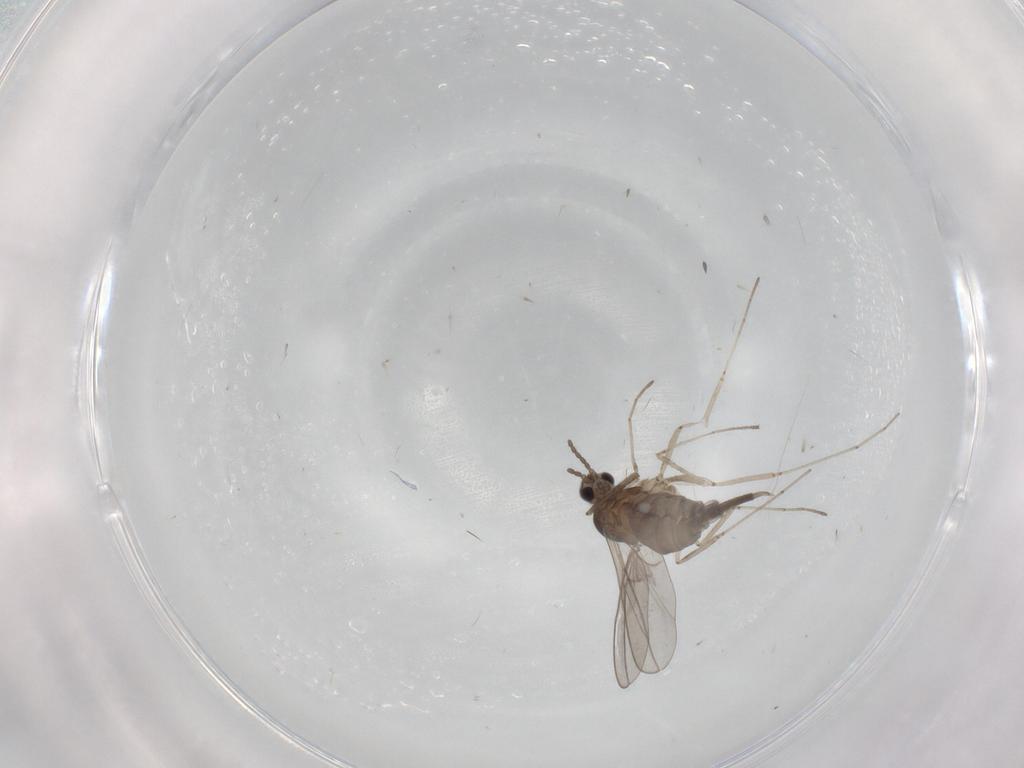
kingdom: Animalia
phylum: Arthropoda
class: Insecta
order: Diptera
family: Cecidomyiidae
